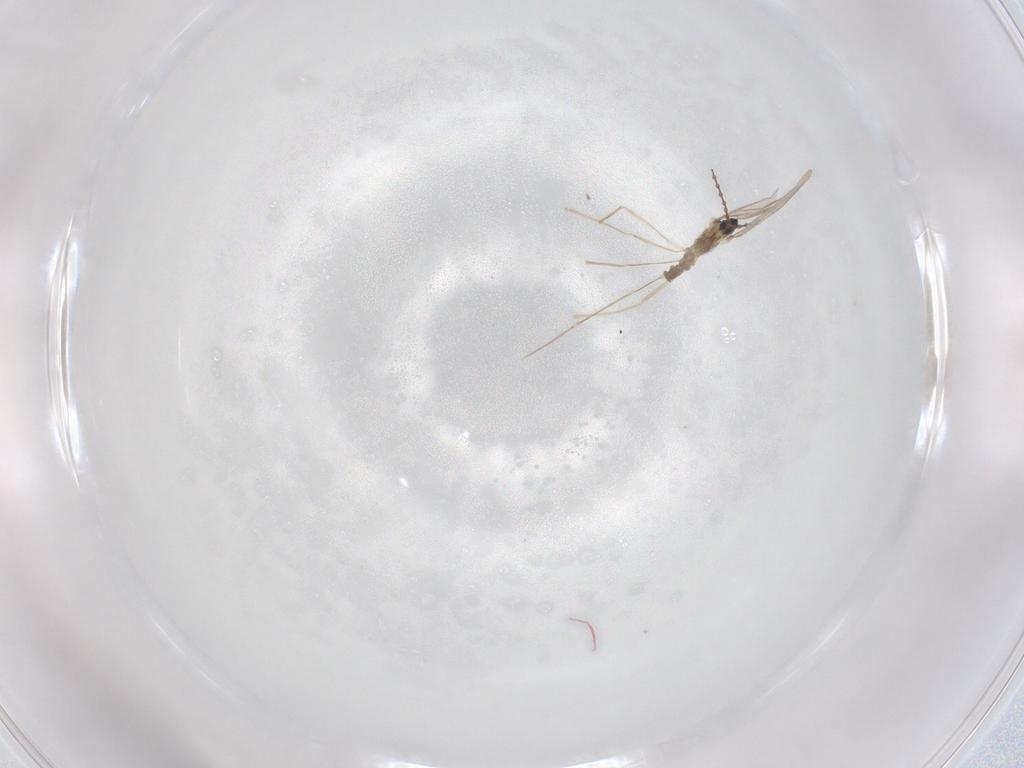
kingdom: Animalia
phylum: Arthropoda
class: Insecta
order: Diptera
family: Cecidomyiidae
